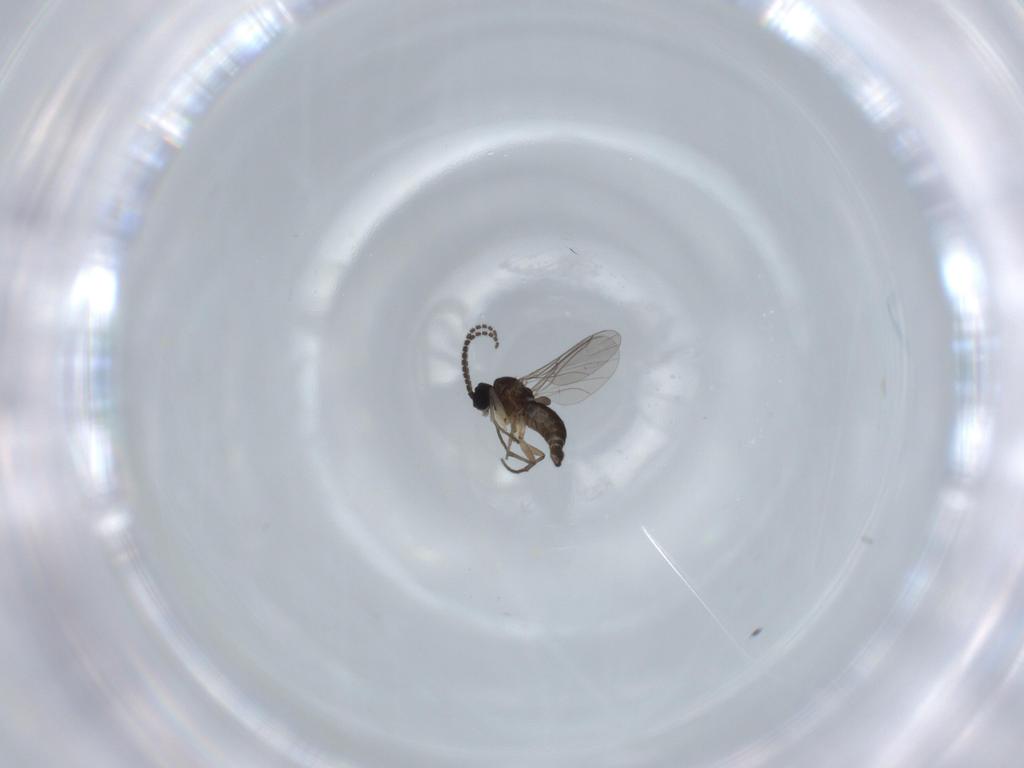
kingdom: Animalia
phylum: Arthropoda
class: Insecta
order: Diptera
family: Sciaridae
